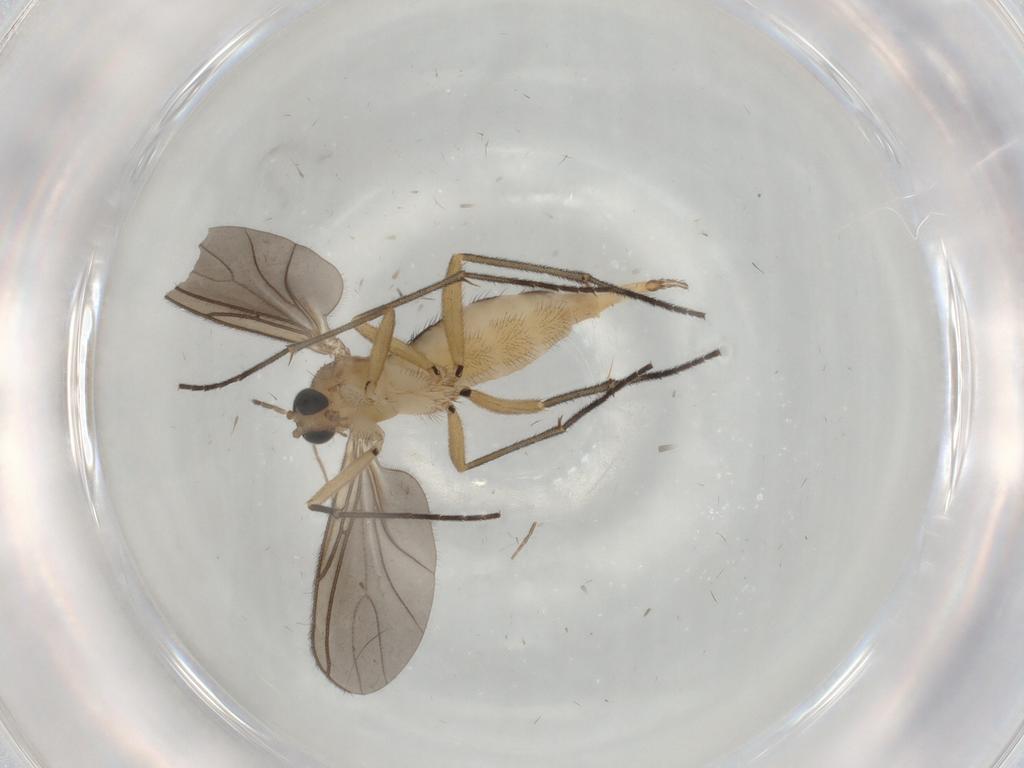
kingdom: Animalia
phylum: Arthropoda
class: Insecta
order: Diptera
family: Sciaridae
